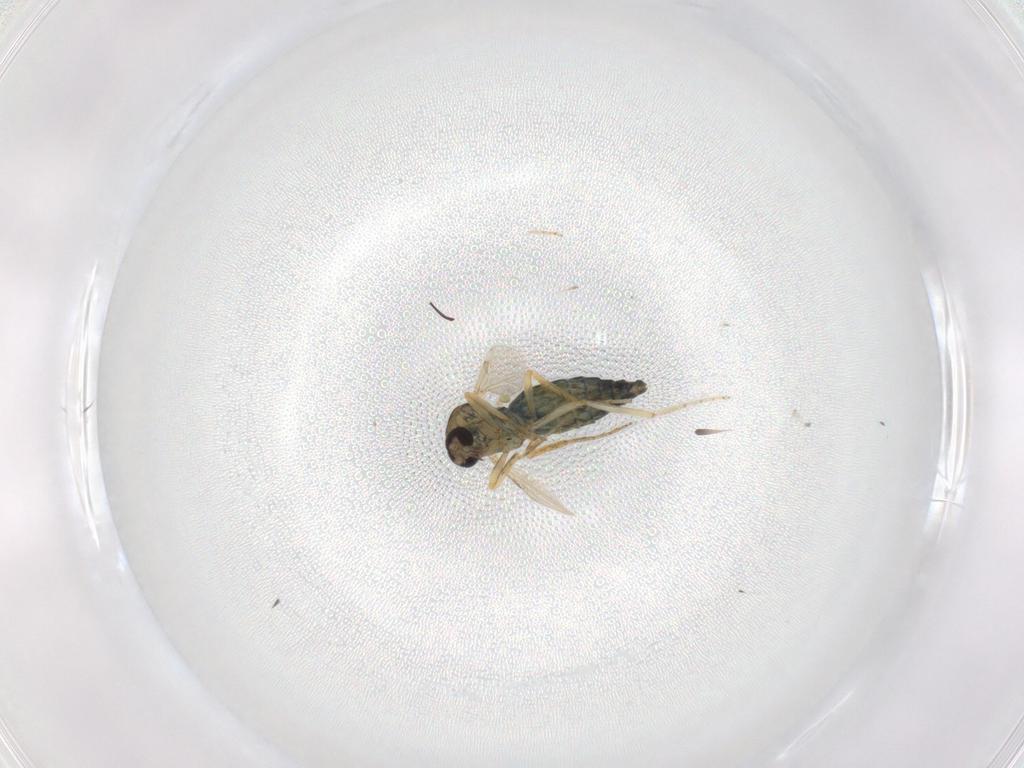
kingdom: Animalia
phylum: Arthropoda
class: Insecta
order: Diptera
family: Ceratopogonidae
